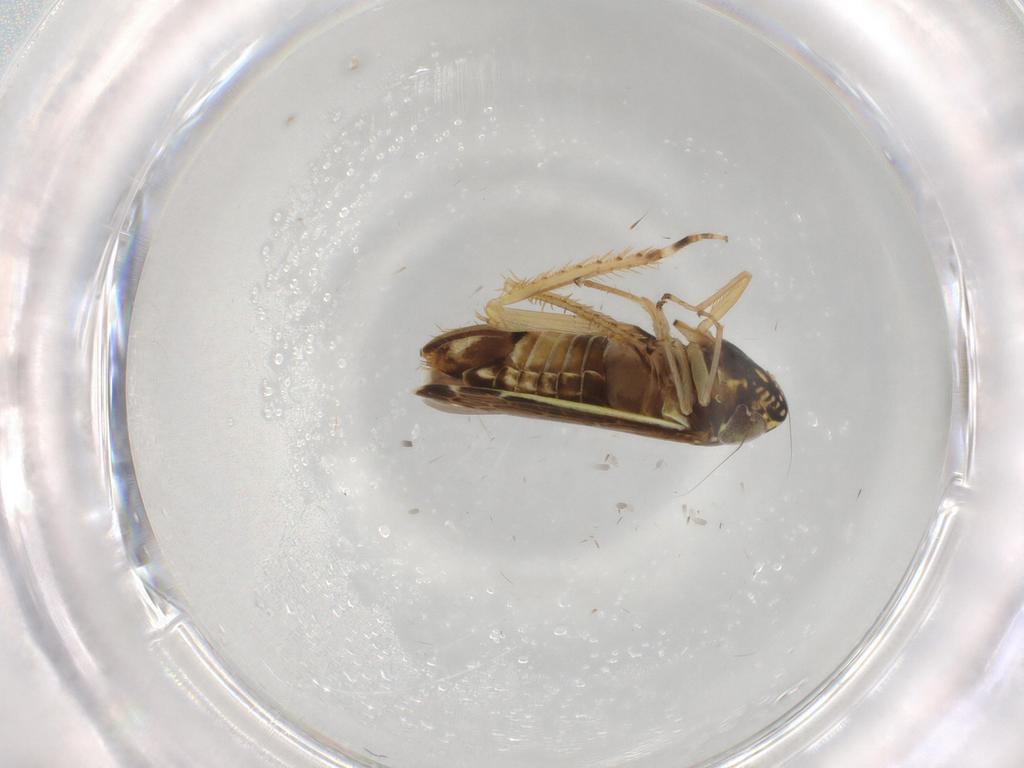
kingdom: Animalia
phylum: Arthropoda
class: Insecta
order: Hemiptera
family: Cicadellidae
